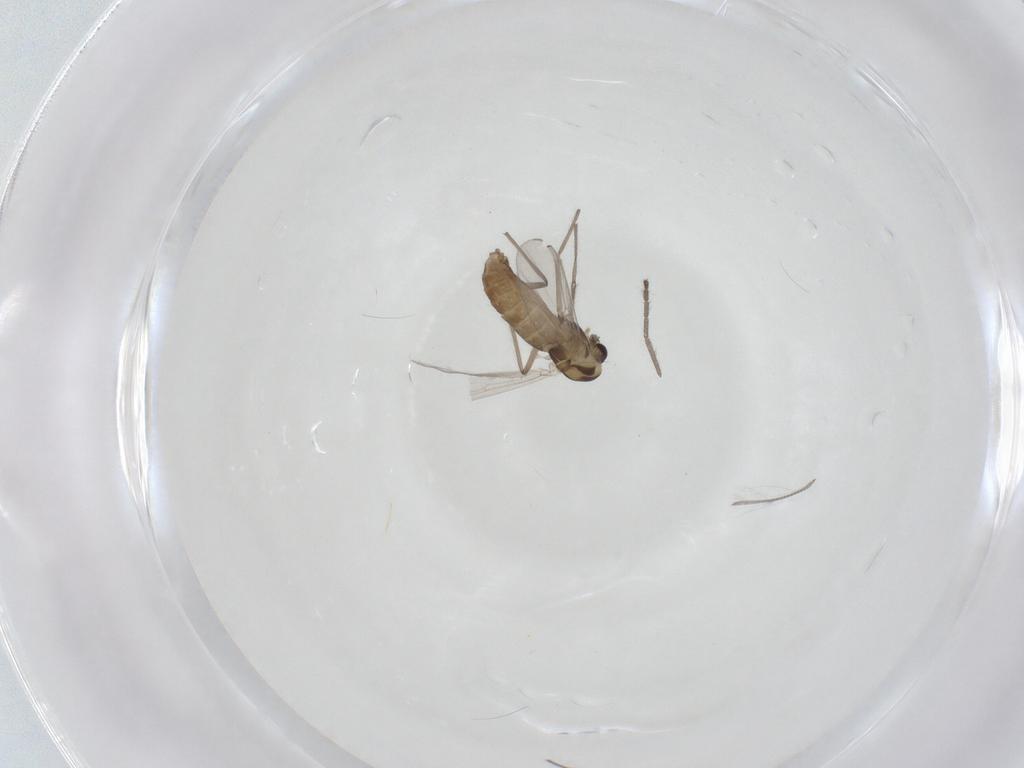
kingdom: Animalia
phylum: Arthropoda
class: Insecta
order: Diptera
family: Chironomidae
